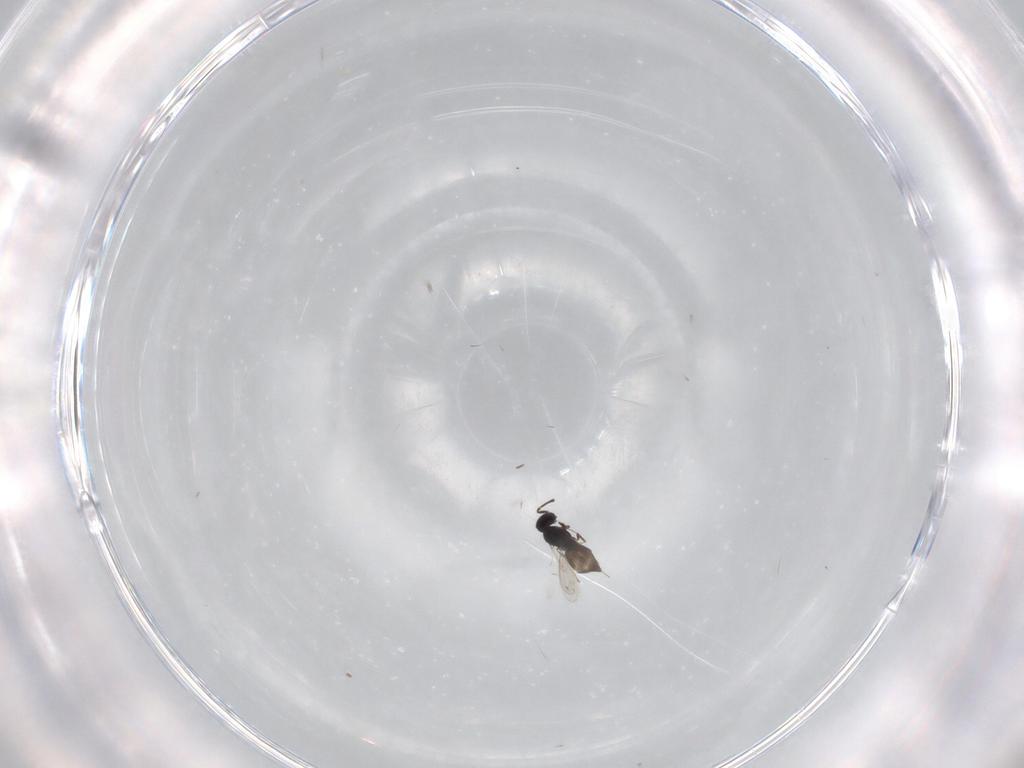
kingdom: Animalia
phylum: Arthropoda
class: Insecta
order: Hymenoptera
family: Scelionidae
